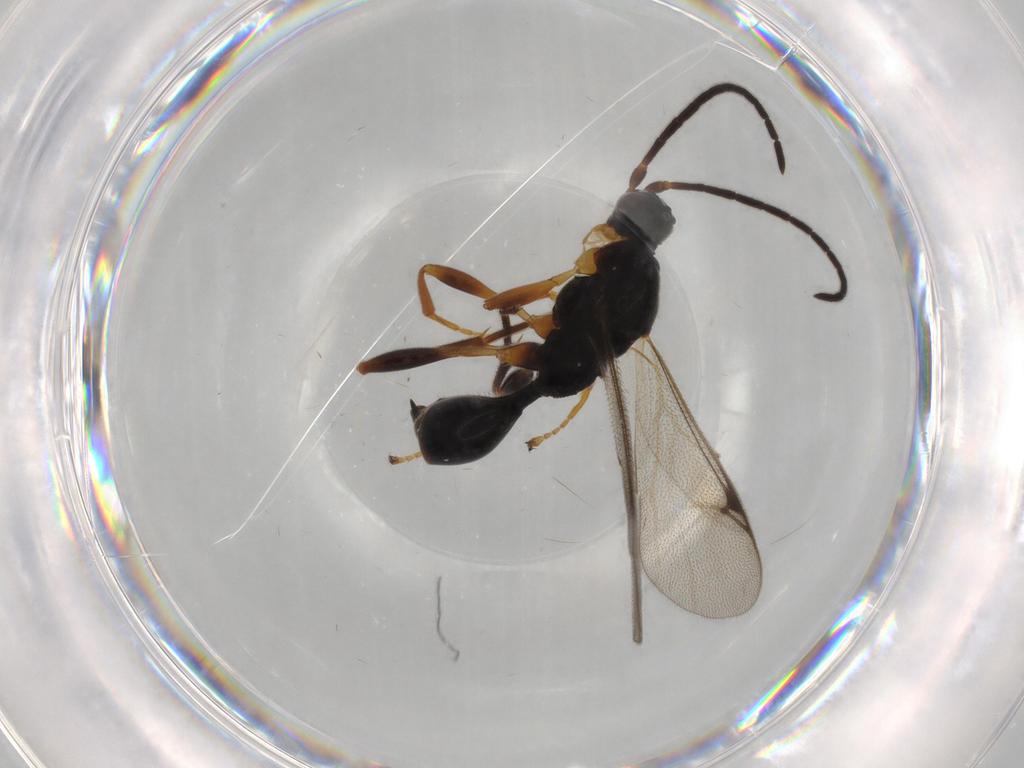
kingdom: Animalia
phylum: Arthropoda
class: Insecta
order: Hymenoptera
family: Proctotrupidae
